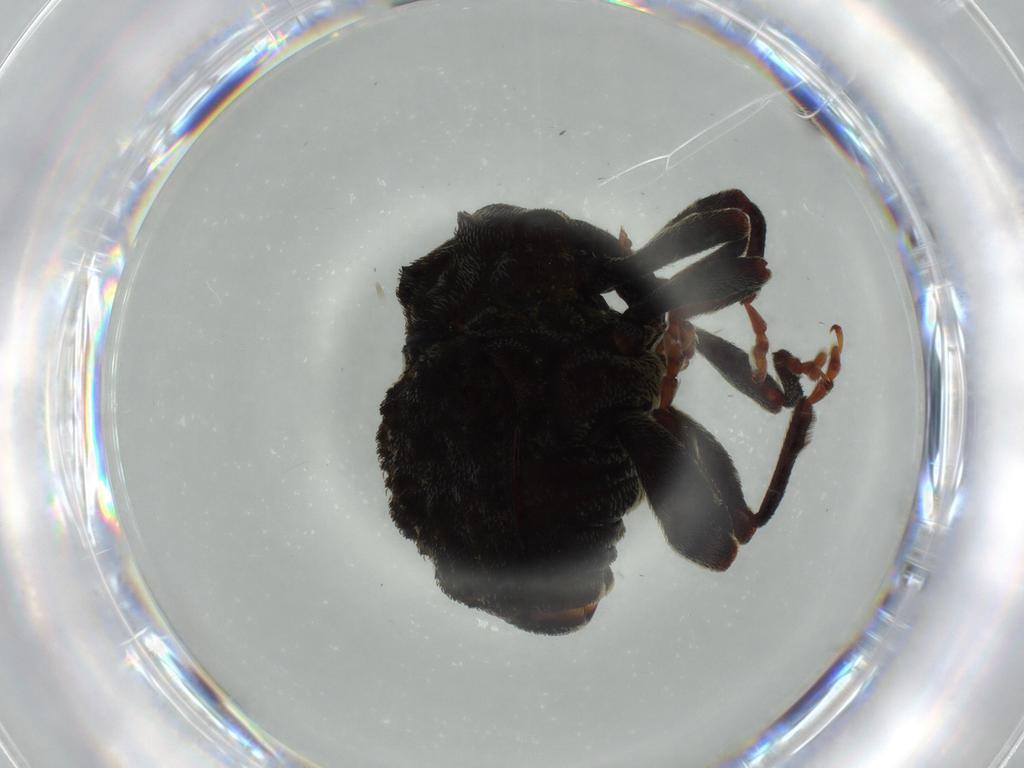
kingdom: Animalia
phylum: Arthropoda
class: Insecta
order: Coleoptera
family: Curculionidae
